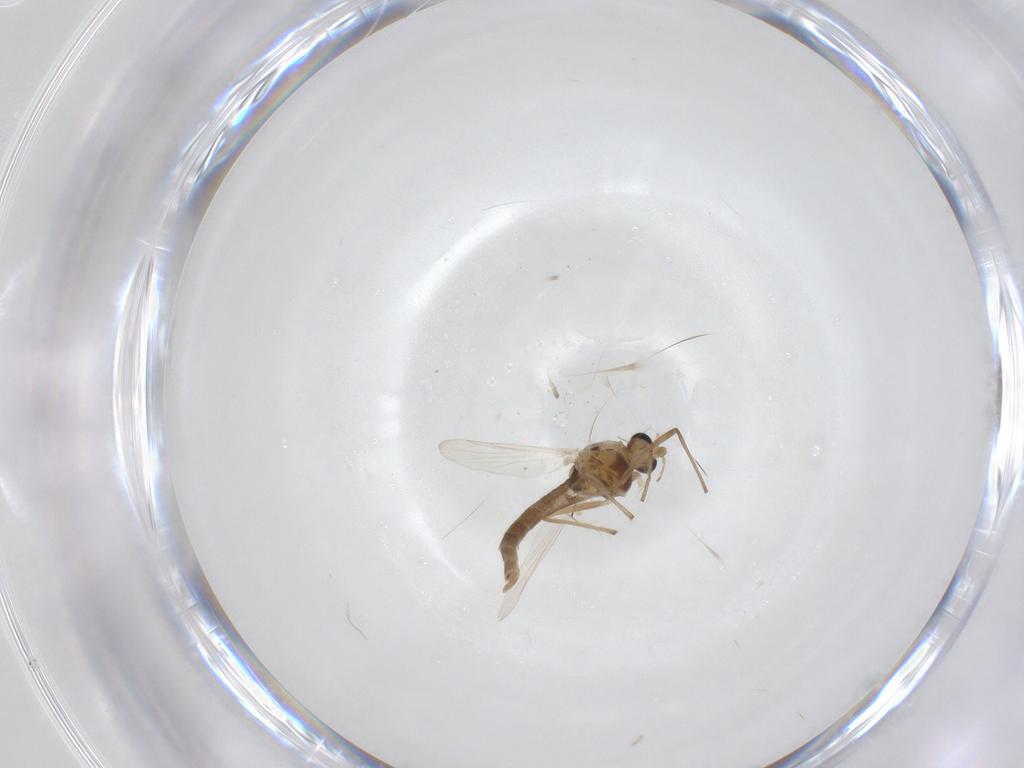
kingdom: Animalia
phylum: Arthropoda
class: Insecta
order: Diptera
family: Chironomidae
